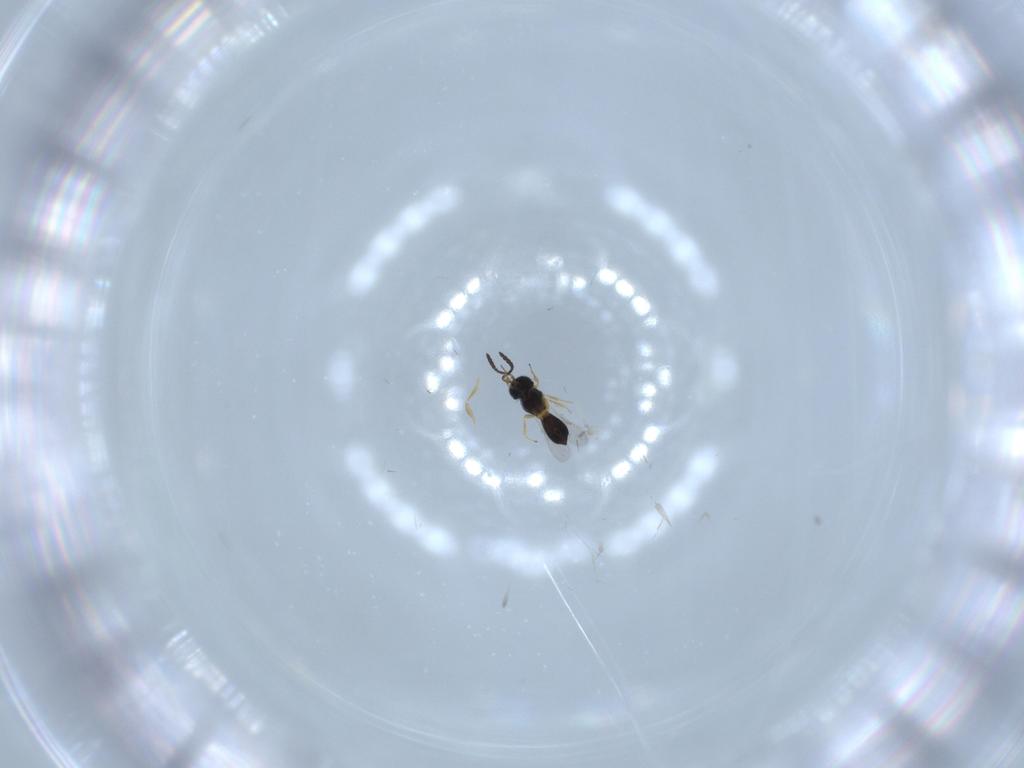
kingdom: Animalia
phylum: Arthropoda
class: Insecta
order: Hymenoptera
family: Scelionidae
